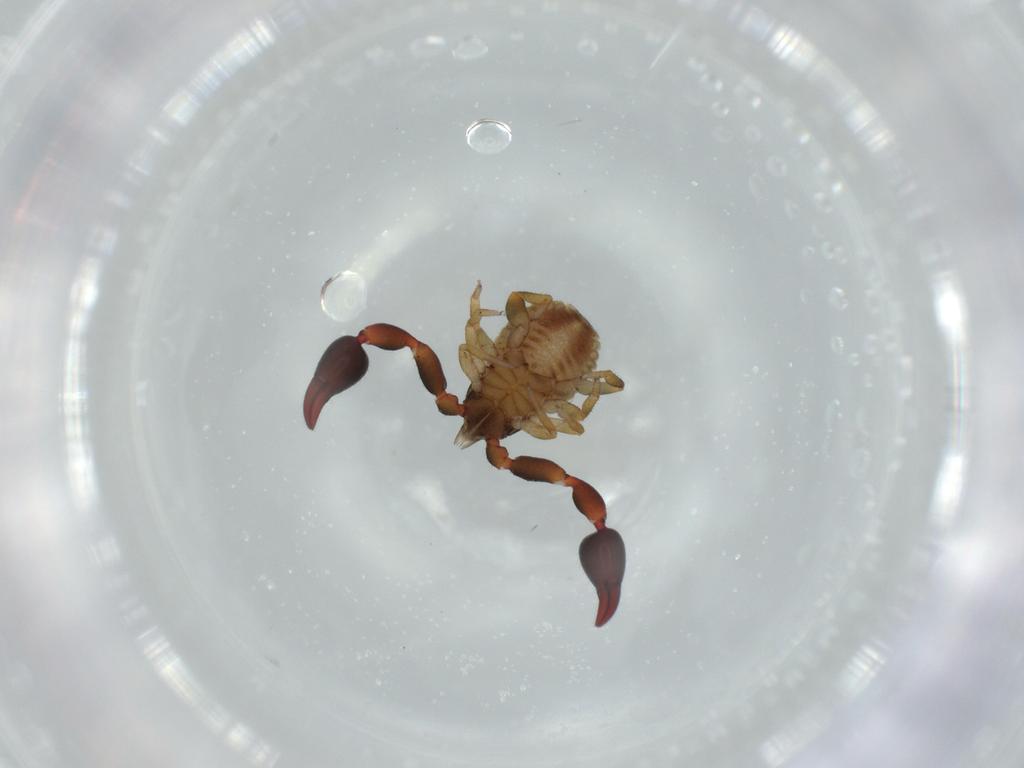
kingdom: Animalia
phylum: Arthropoda
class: Arachnida
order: Pseudoscorpiones
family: Chernetidae
